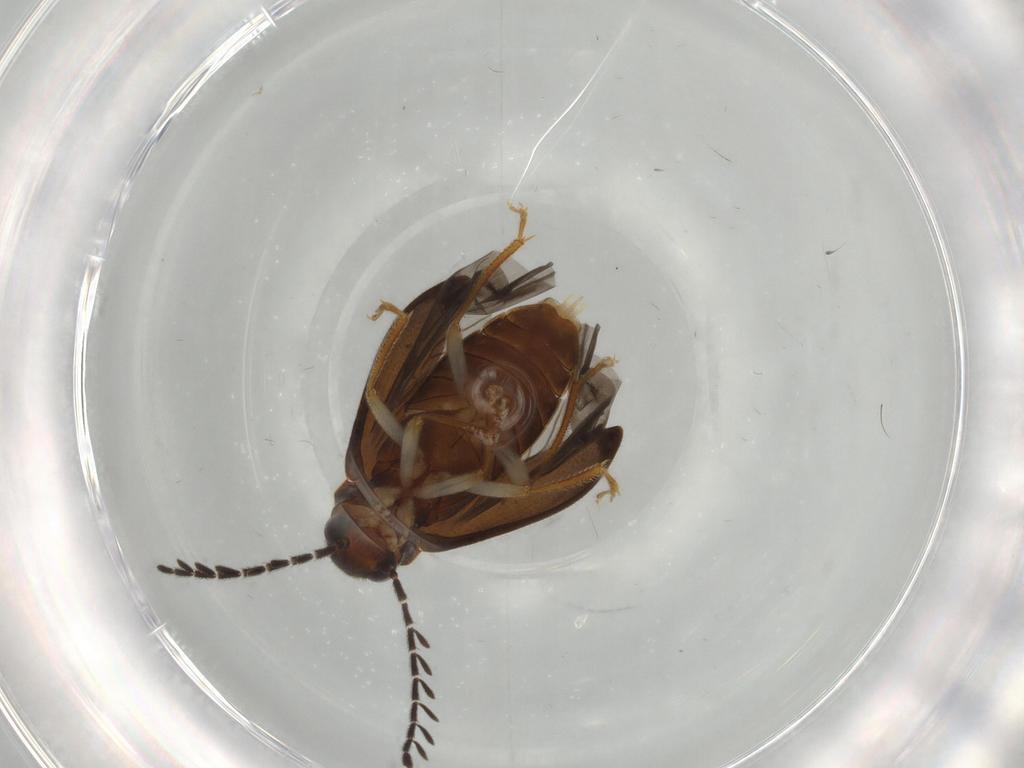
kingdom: Animalia
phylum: Arthropoda
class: Insecta
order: Coleoptera
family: Ptilodactylidae
